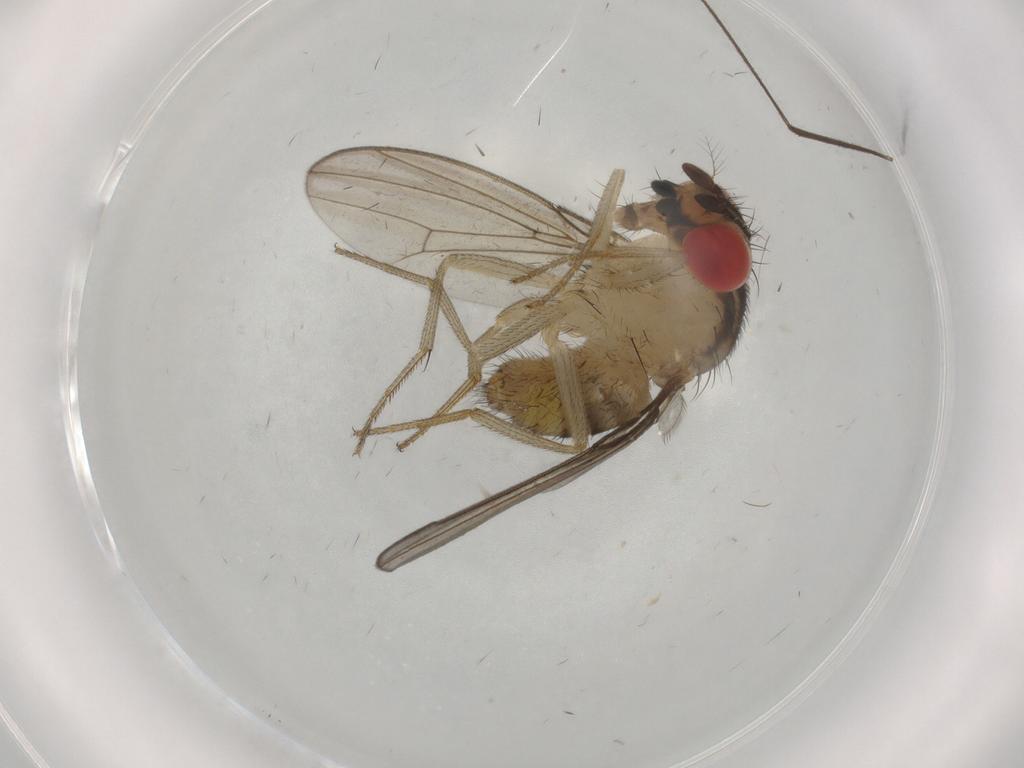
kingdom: Animalia
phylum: Arthropoda
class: Insecta
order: Diptera
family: Drosophilidae
